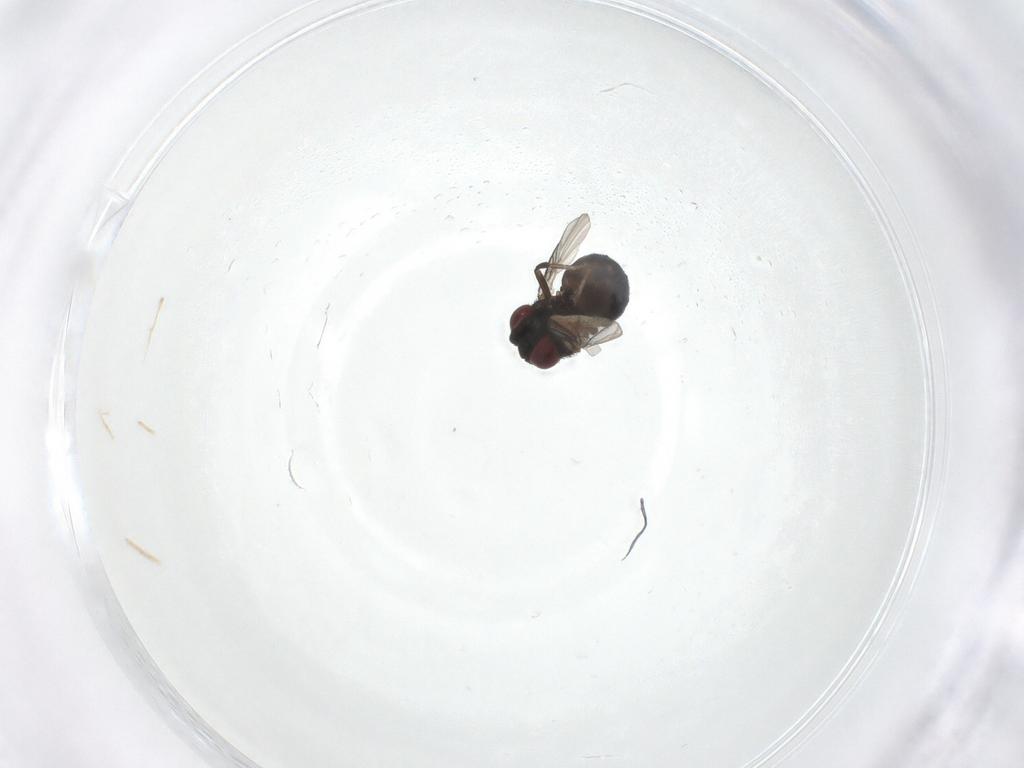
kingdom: Animalia
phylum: Arthropoda
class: Insecta
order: Diptera
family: Cryptochetidae
